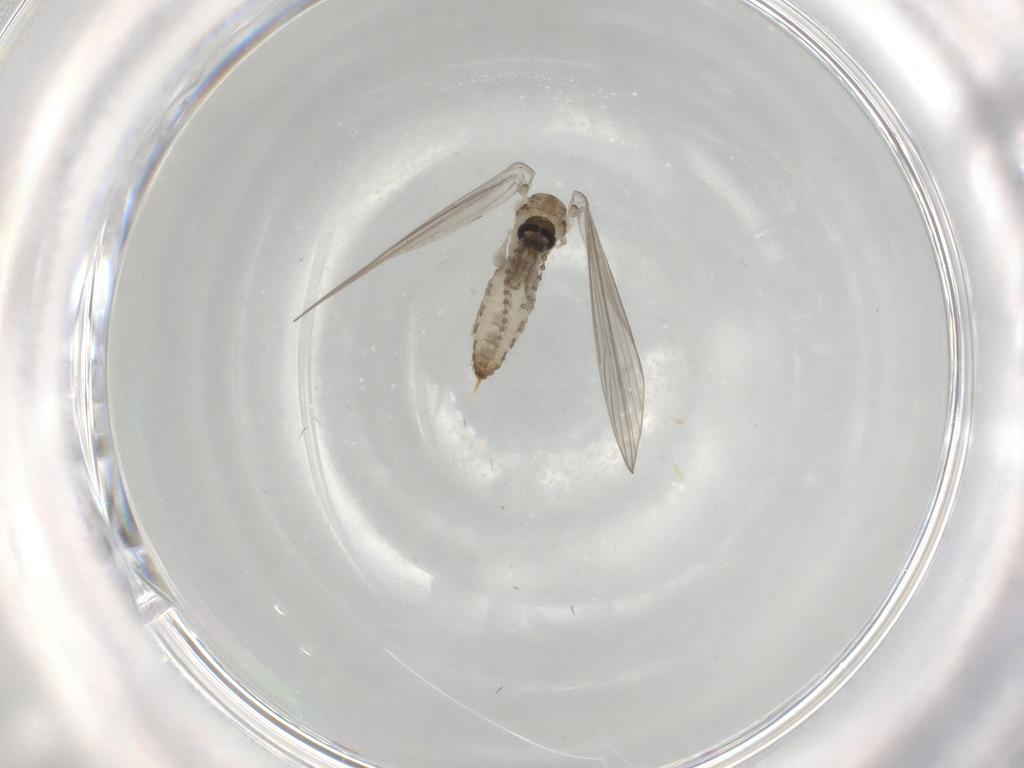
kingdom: Animalia
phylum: Arthropoda
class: Insecta
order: Diptera
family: Psychodidae
